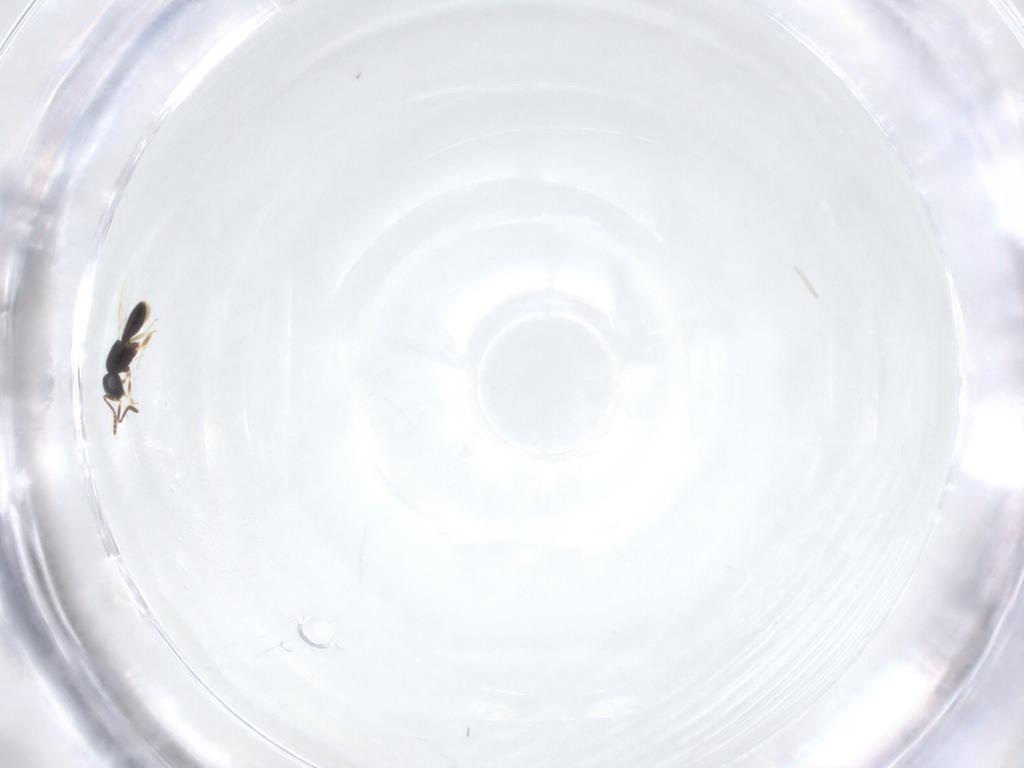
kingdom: Animalia
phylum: Arthropoda
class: Insecta
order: Hymenoptera
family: Scelionidae
